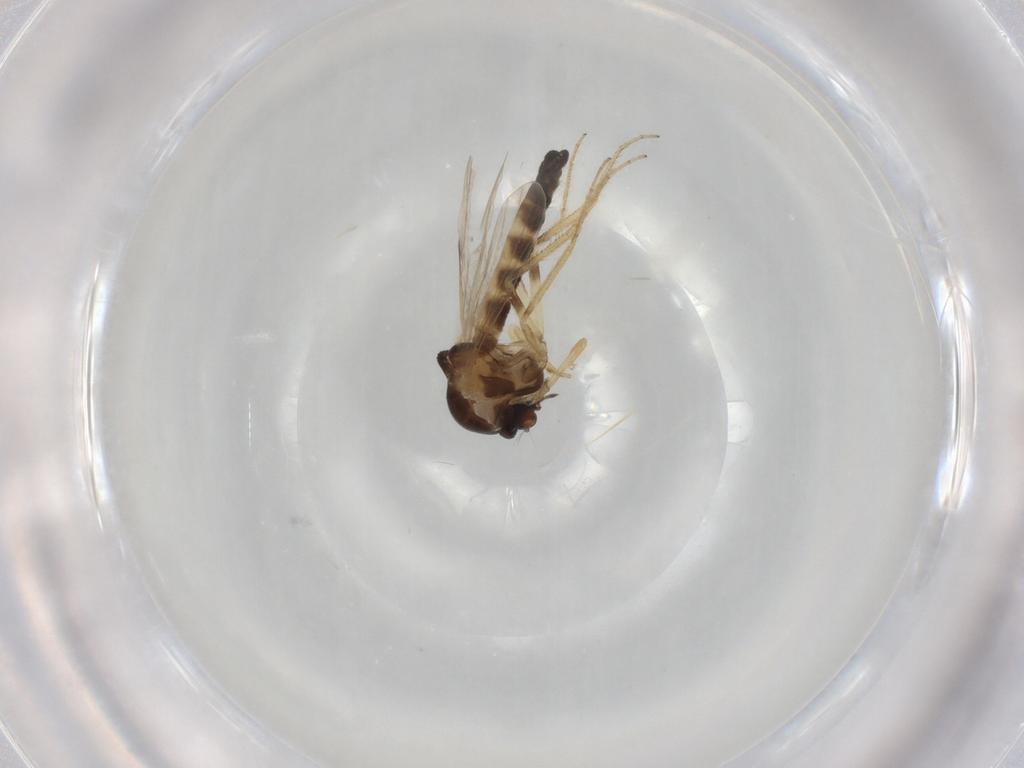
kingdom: Animalia
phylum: Arthropoda
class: Insecta
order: Diptera
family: Ceratopogonidae
